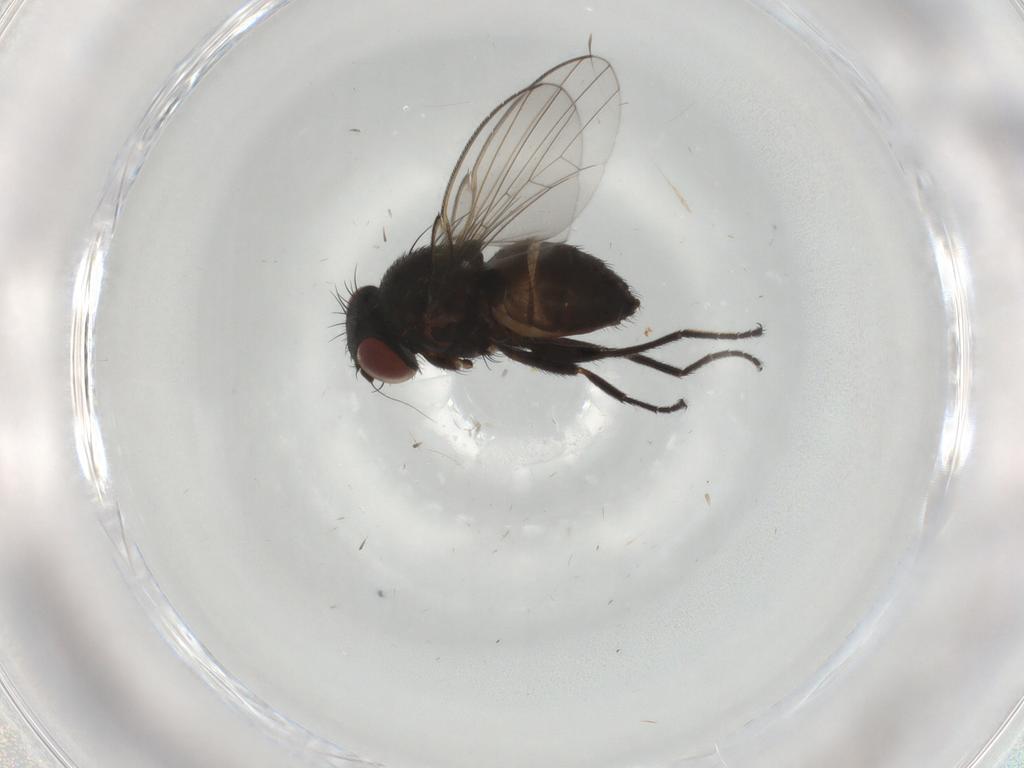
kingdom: Animalia
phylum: Arthropoda
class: Insecta
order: Diptera
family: Milichiidae
